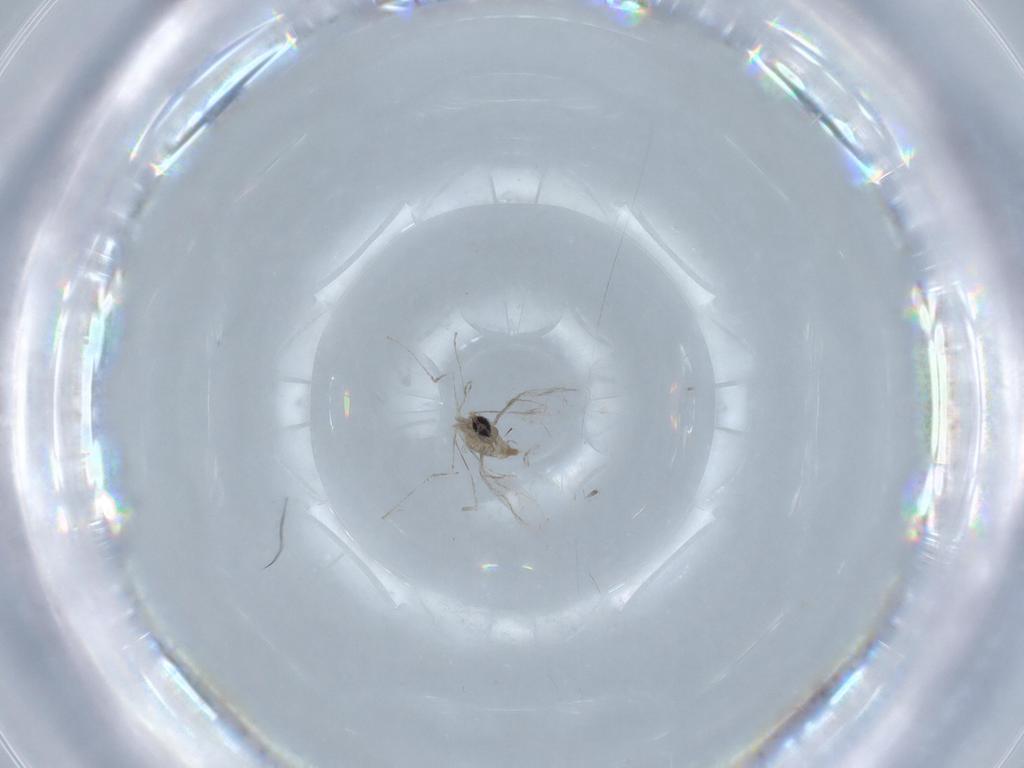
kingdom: Animalia
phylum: Arthropoda
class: Insecta
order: Diptera
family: Cecidomyiidae
